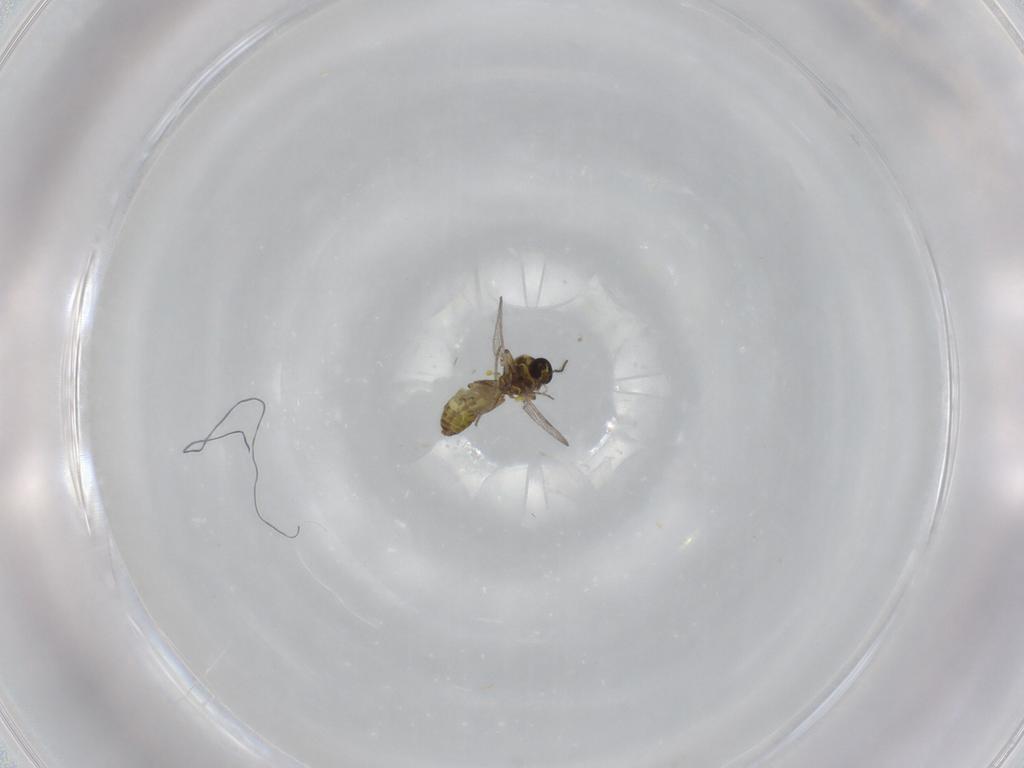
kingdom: Animalia
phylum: Arthropoda
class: Insecta
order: Diptera
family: Ceratopogonidae
